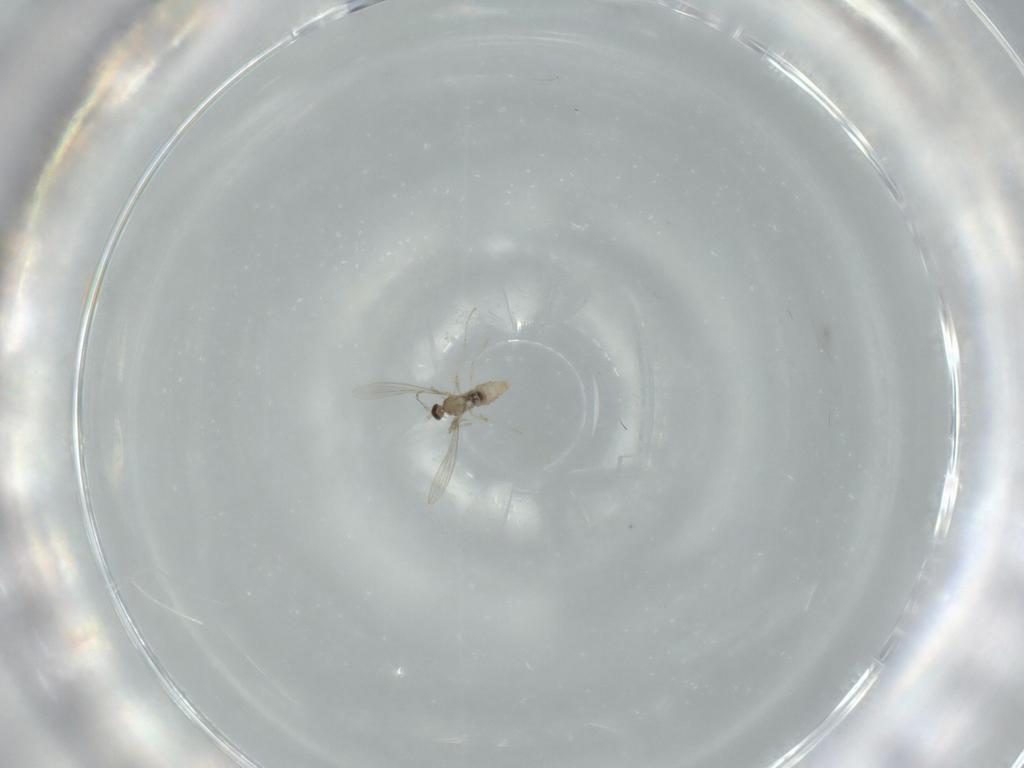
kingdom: Animalia
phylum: Arthropoda
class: Insecta
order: Diptera
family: Cecidomyiidae
